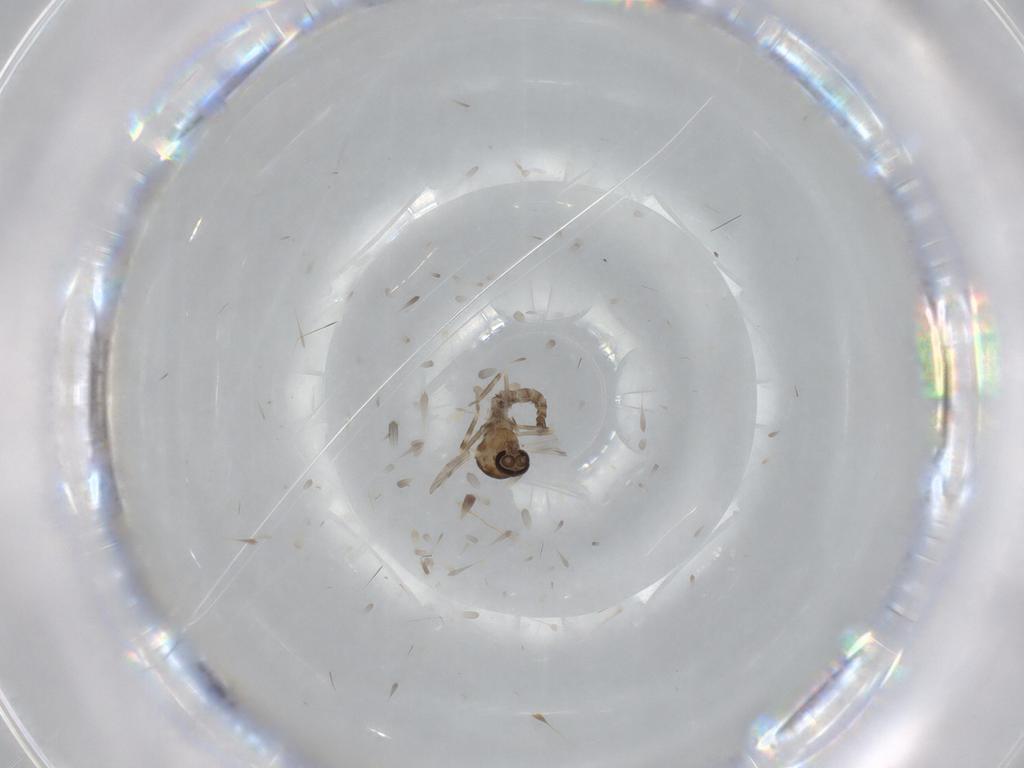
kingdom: Animalia
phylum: Arthropoda
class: Insecta
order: Diptera
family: Ceratopogonidae
